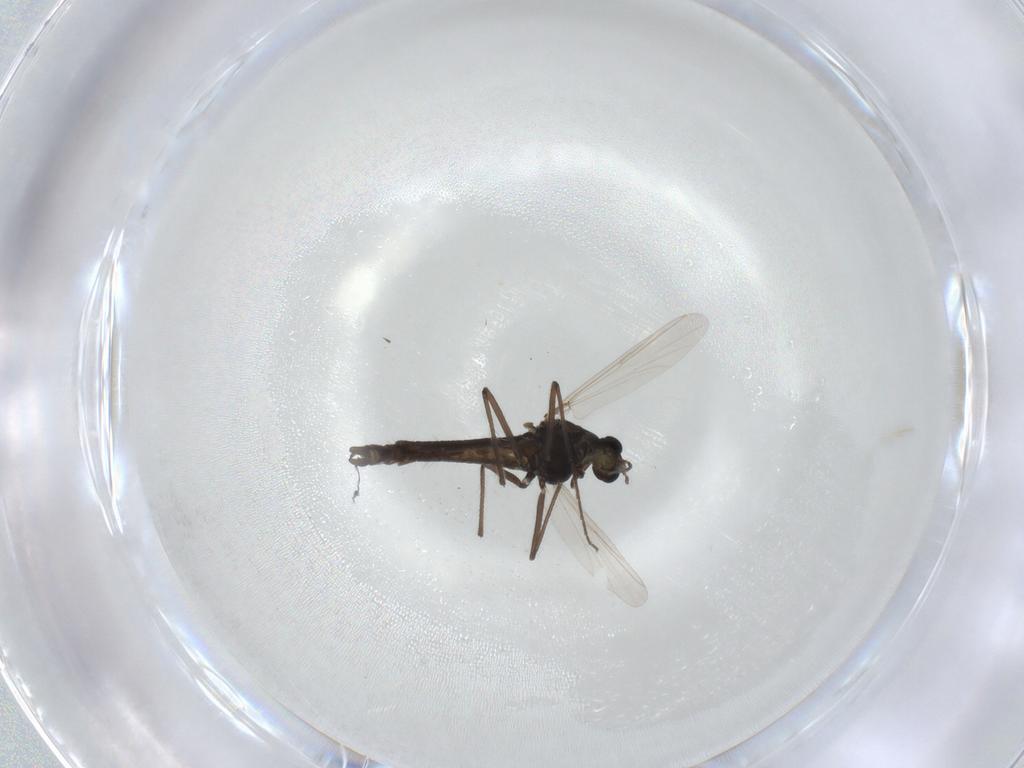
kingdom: Animalia
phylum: Arthropoda
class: Insecta
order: Diptera
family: Chironomidae
